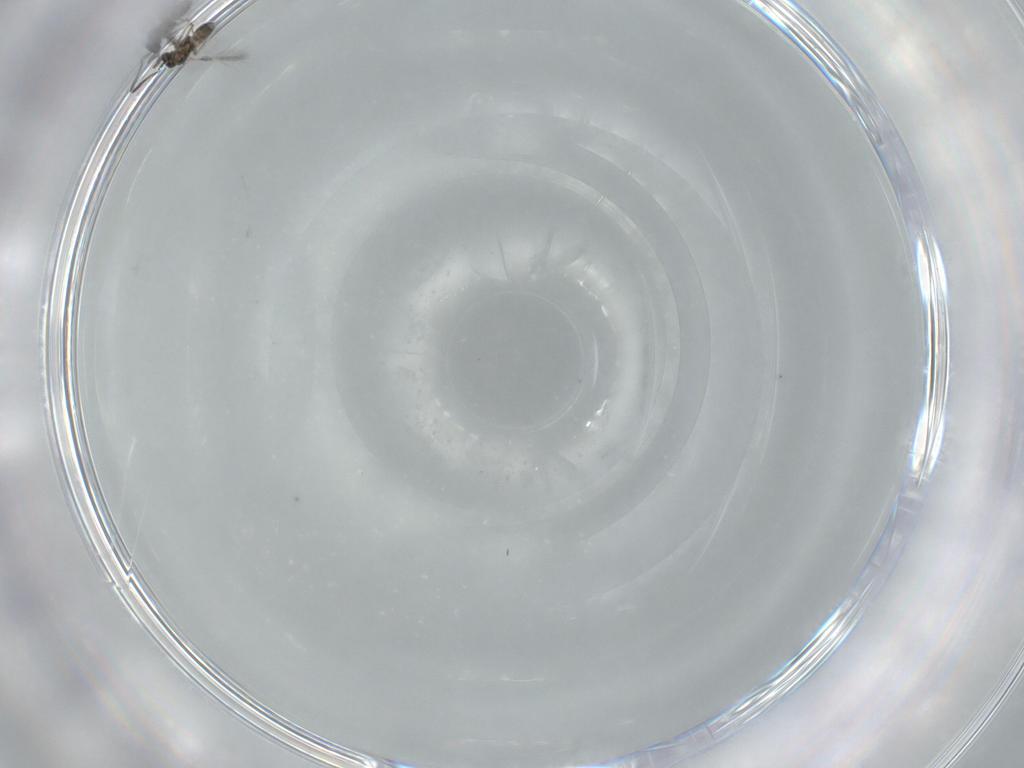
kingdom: Animalia
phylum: Arthropoda
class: Insecta
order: Hymenoptera
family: Mymaridae
